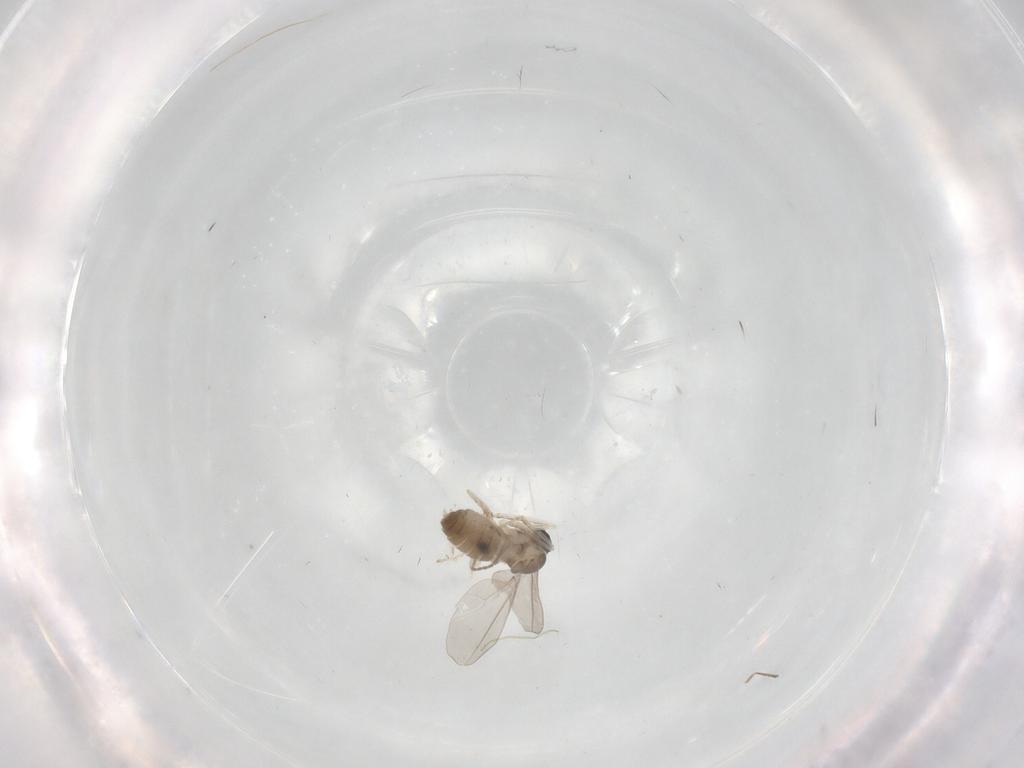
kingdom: Animalia
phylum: Arthropoda
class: Insecta
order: Diptera
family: Cecidomyiidae
